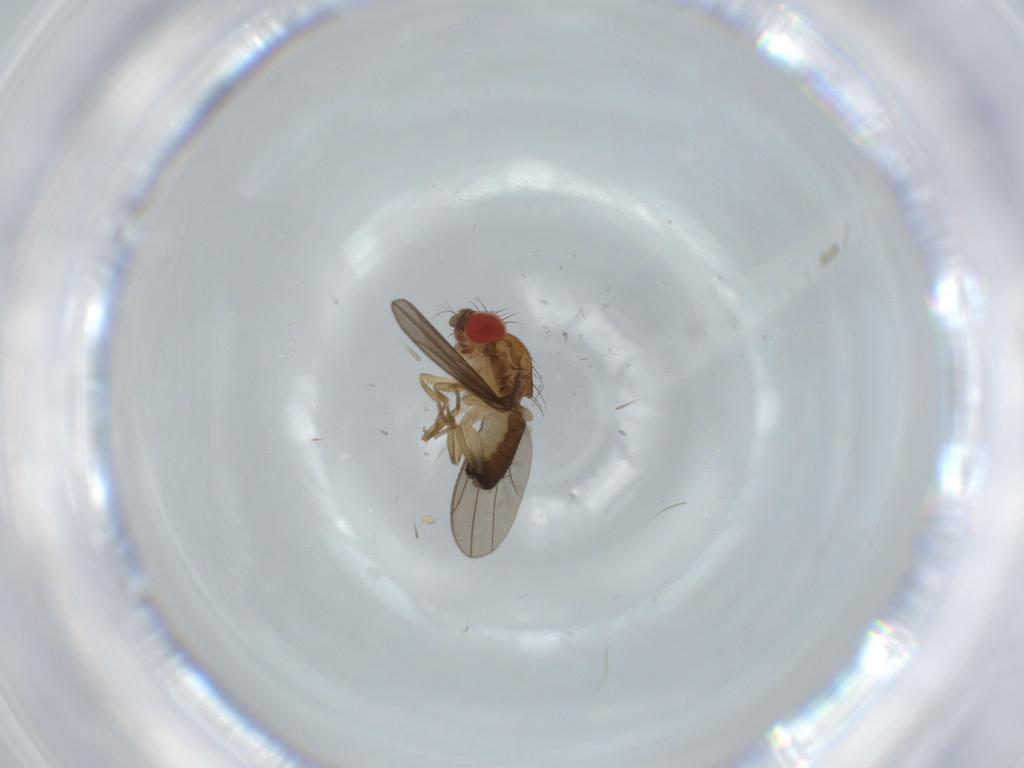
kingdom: Animalia
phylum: Arthropoda
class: Insecta
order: Diptera
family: Drosophilidae
